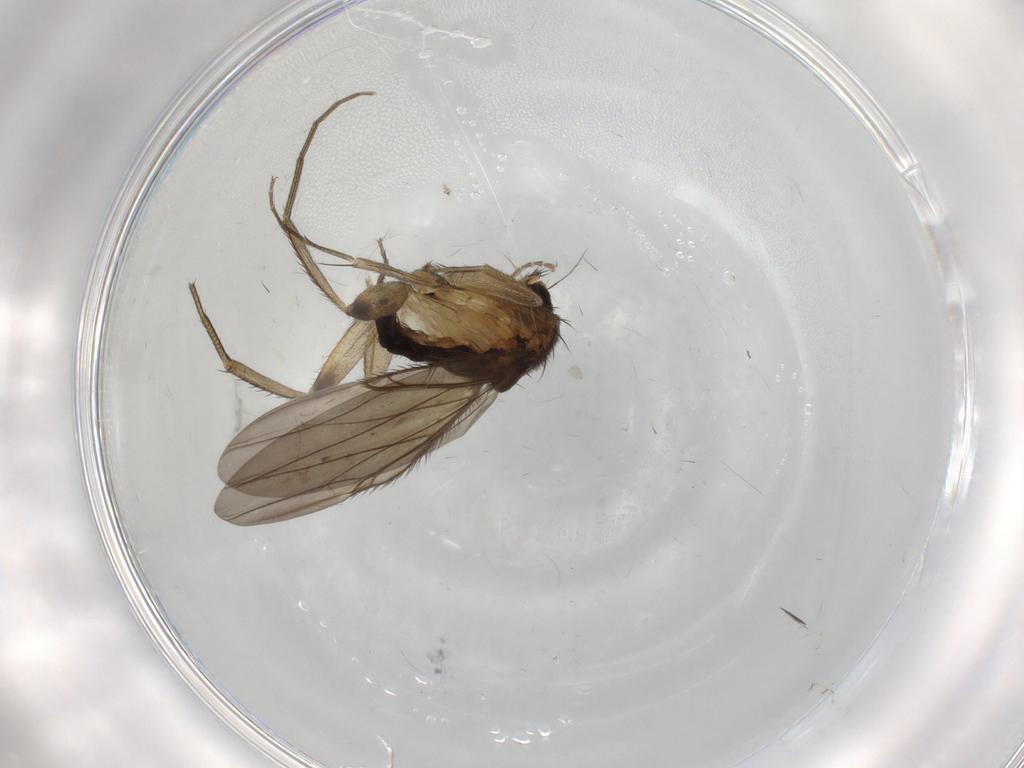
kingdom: Animalia
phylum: Arthropoda
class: Insecta
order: Diptera
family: Phoridae
